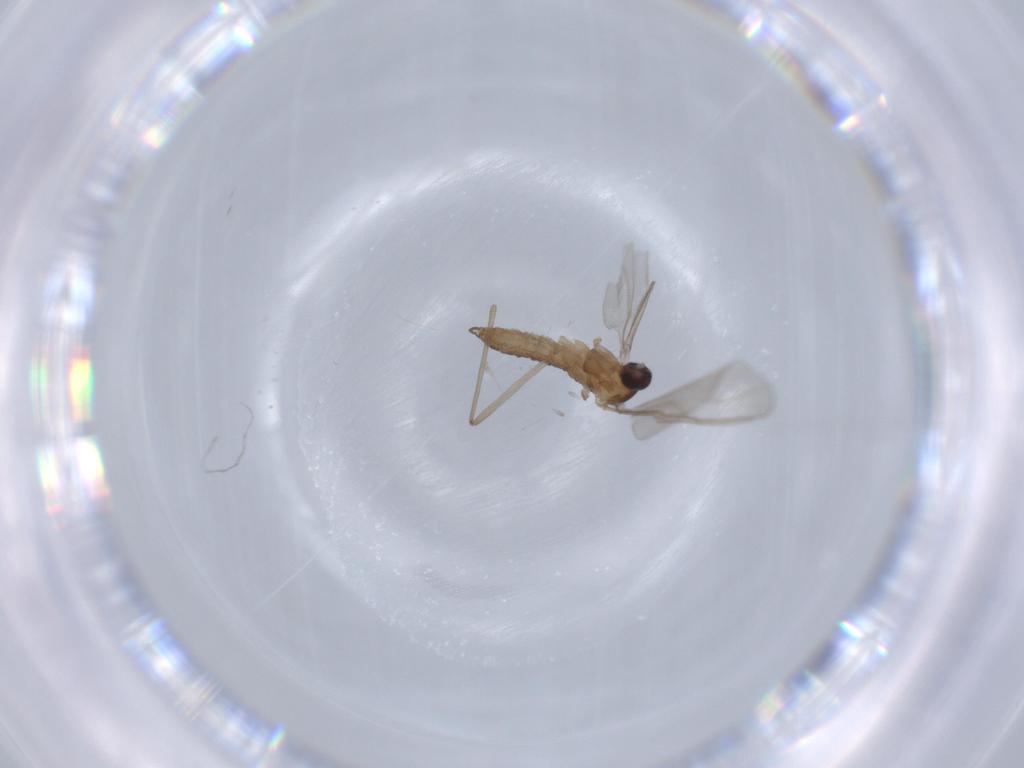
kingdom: Animalia
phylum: Arthropoda
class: Insecta
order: Diptera
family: Cecidomyiidae
